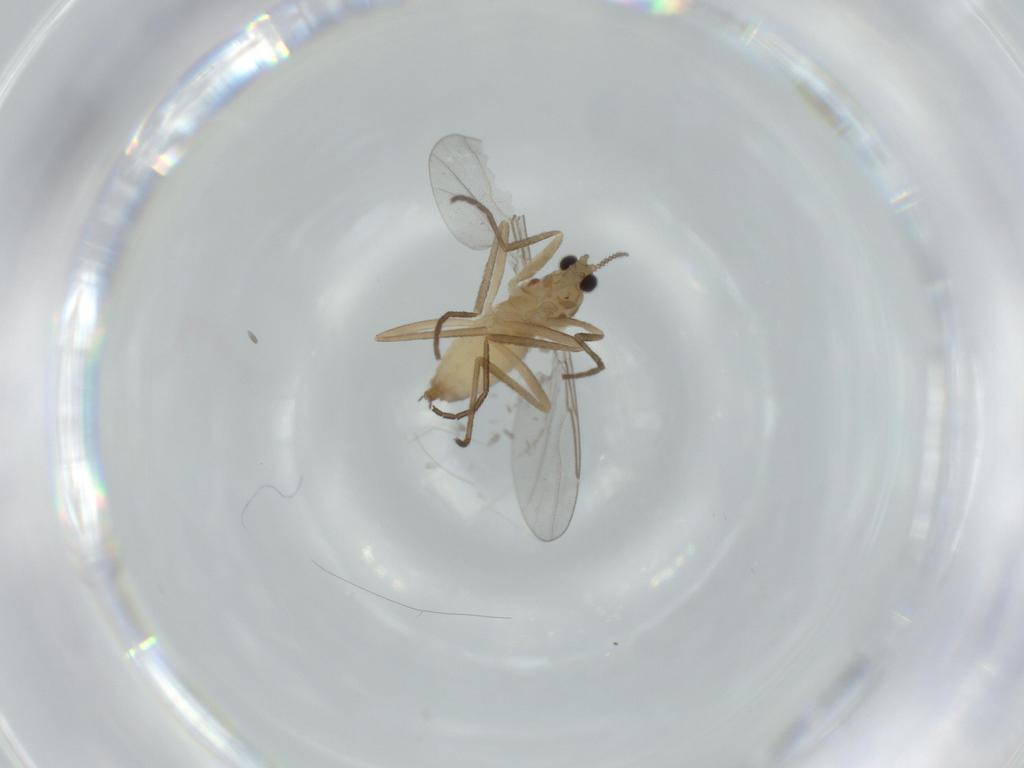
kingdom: Animalia
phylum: Arthropoda
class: Insecta
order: Diptera
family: Cecidomyiidae
